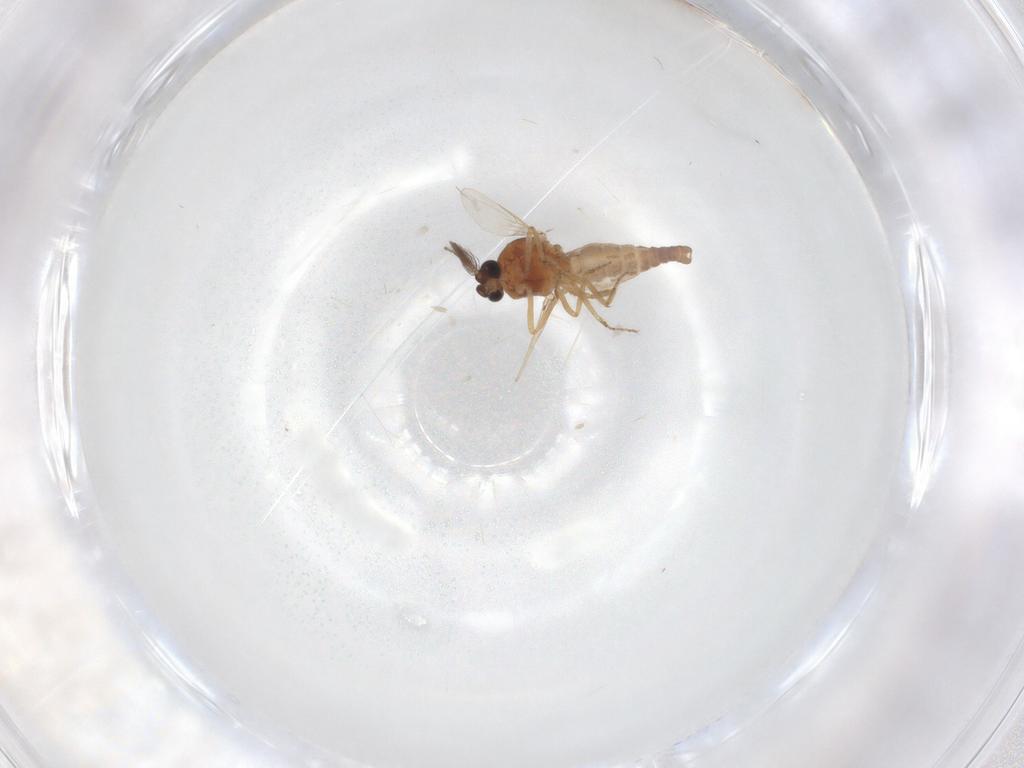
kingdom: Animalia
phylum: Arthropoda
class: Insecta
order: Diptera
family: Ceratopogonidae
